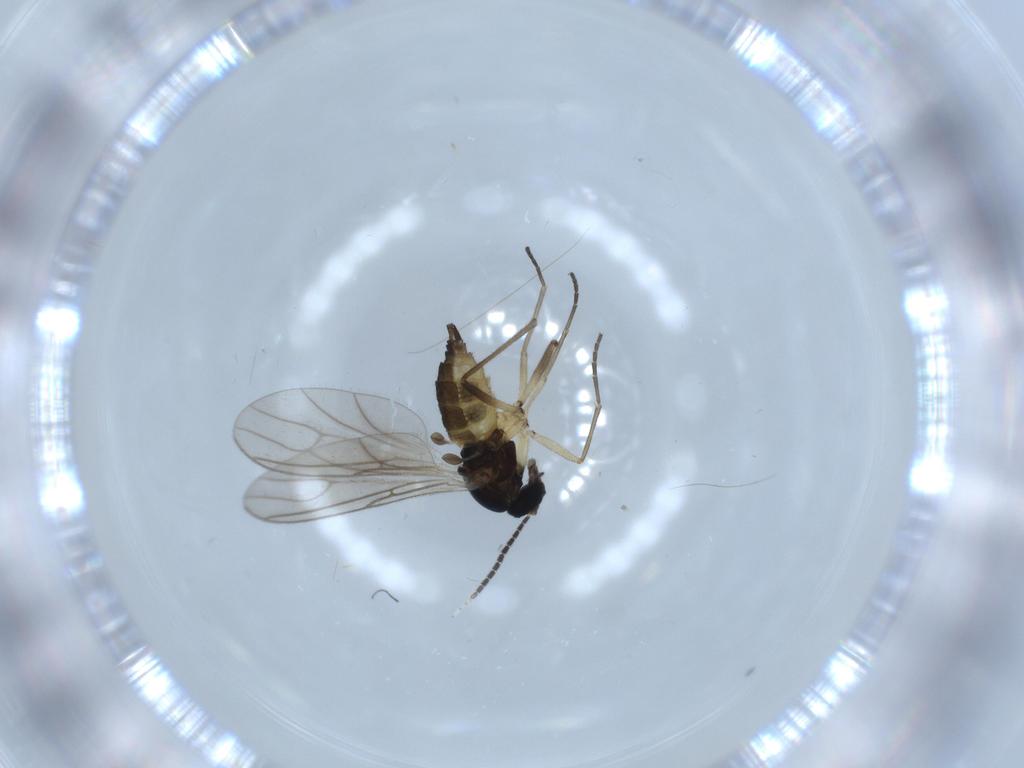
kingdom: Animalia
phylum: Arthropoda
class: Insecta
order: Diptera
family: Sciaridae
